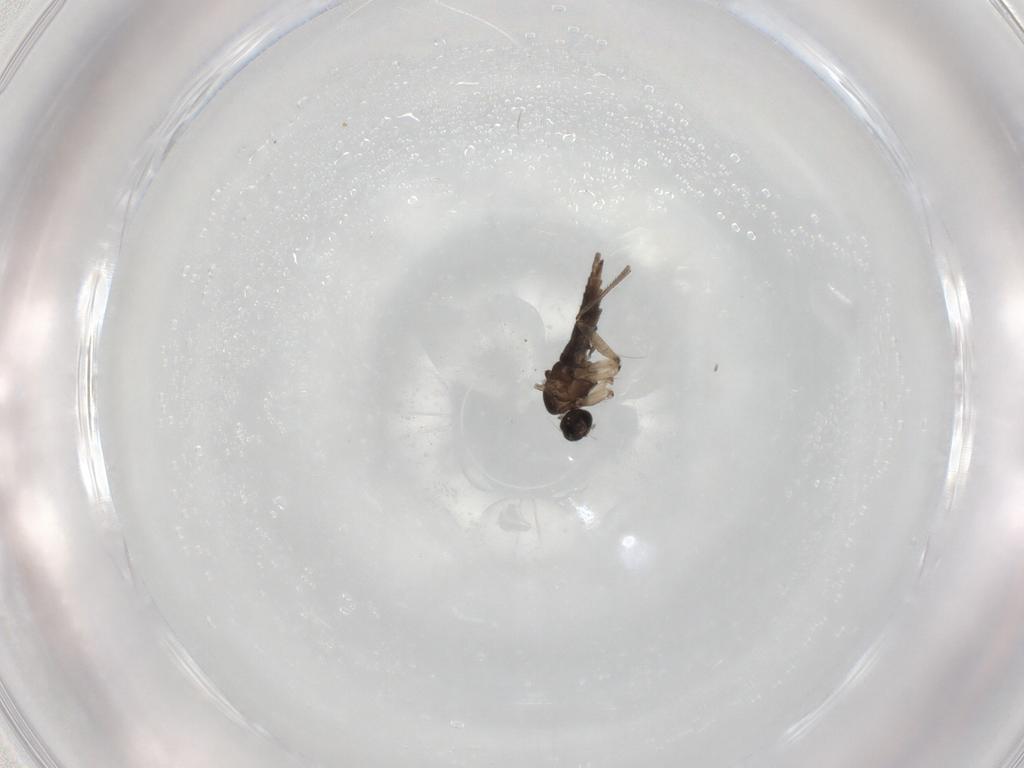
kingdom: Animalia
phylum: Arthropoda
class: Insecta
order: Diptera
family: Sciaridae
